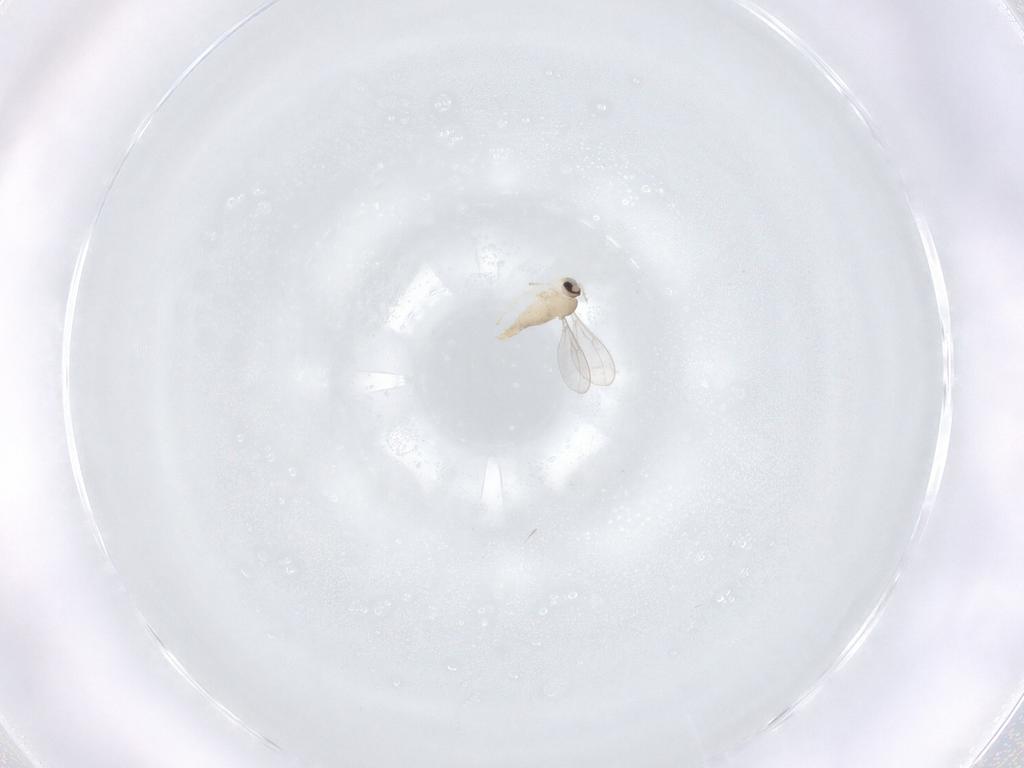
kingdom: Animalia
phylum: Arthropoda
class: Insecta
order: Diptera
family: Cecidomyiidae
